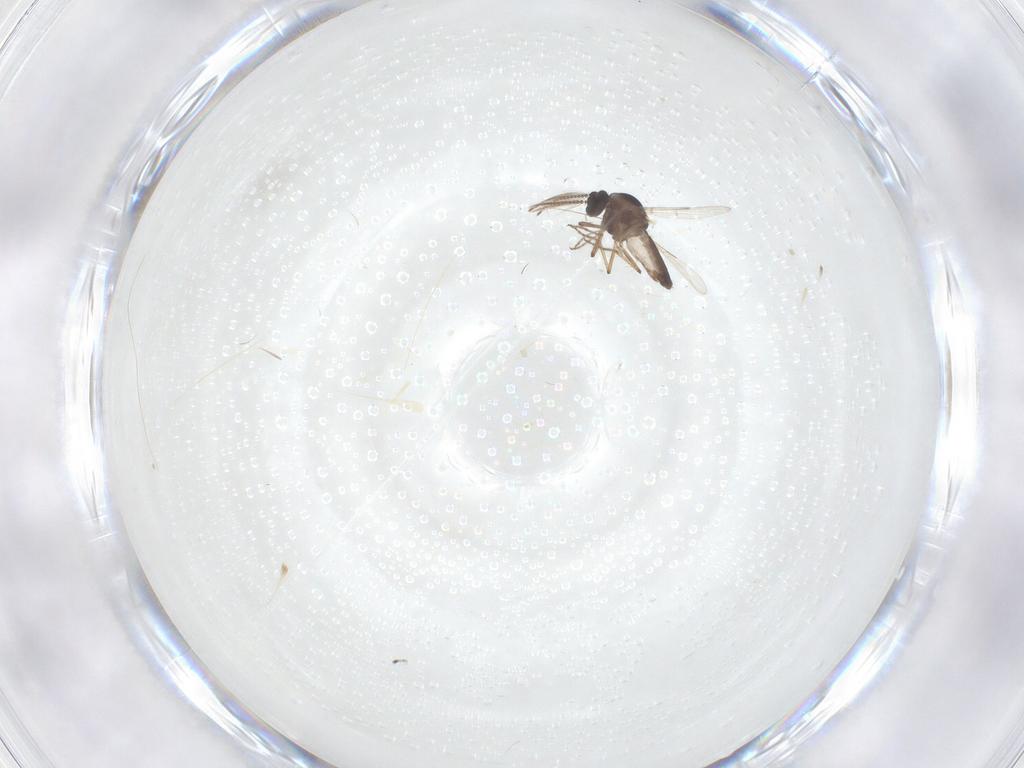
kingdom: Animalia
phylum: Arthropoda
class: Insecta
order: Diptera
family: Ceratopogonidae
